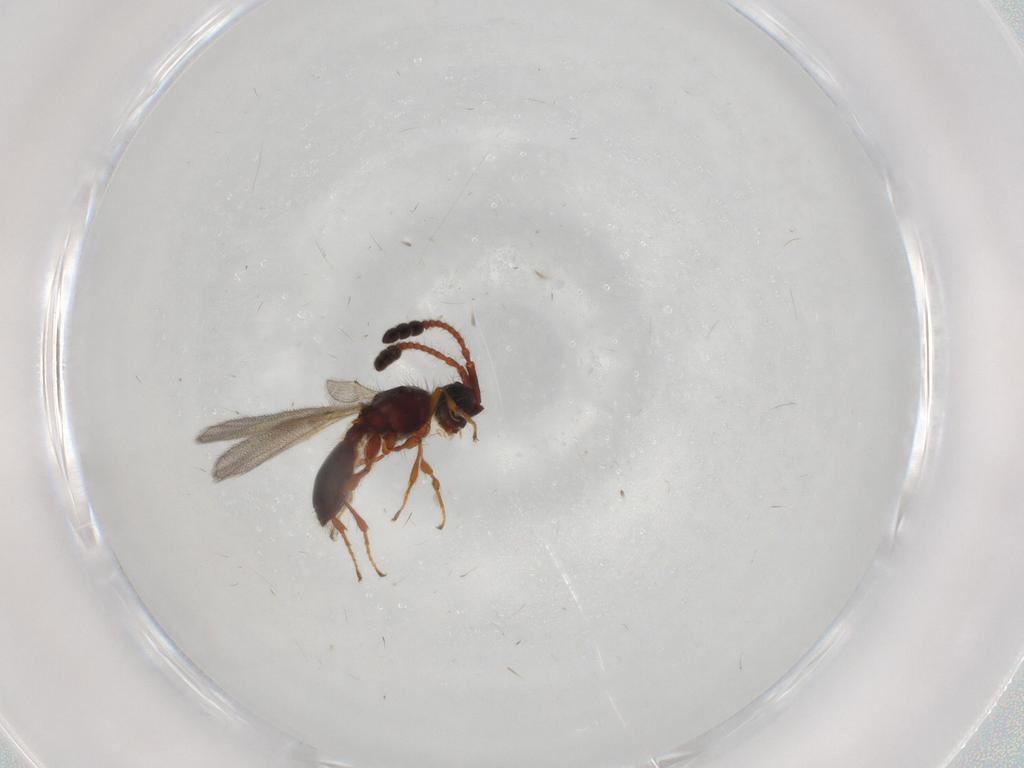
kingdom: Animalia
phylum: Arthropoda
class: Insecta
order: Hymenoptera
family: Diapriidae
